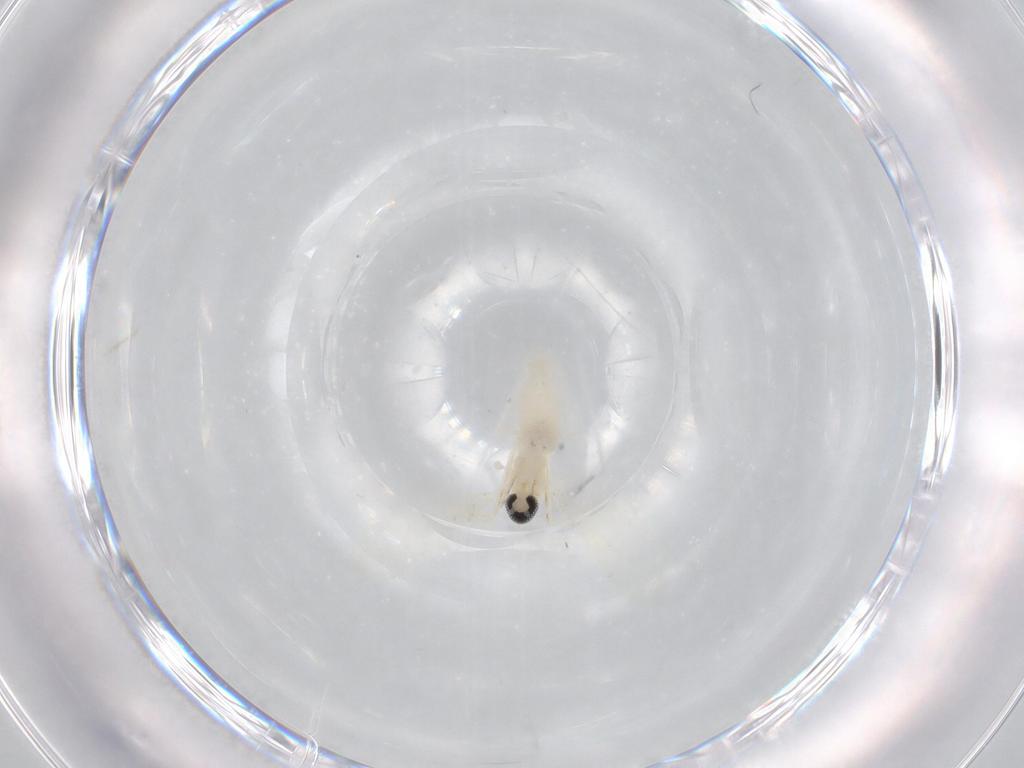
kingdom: Animalia
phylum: Arthropoda
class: Insecta
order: Diptera
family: Cecidomyiidae
